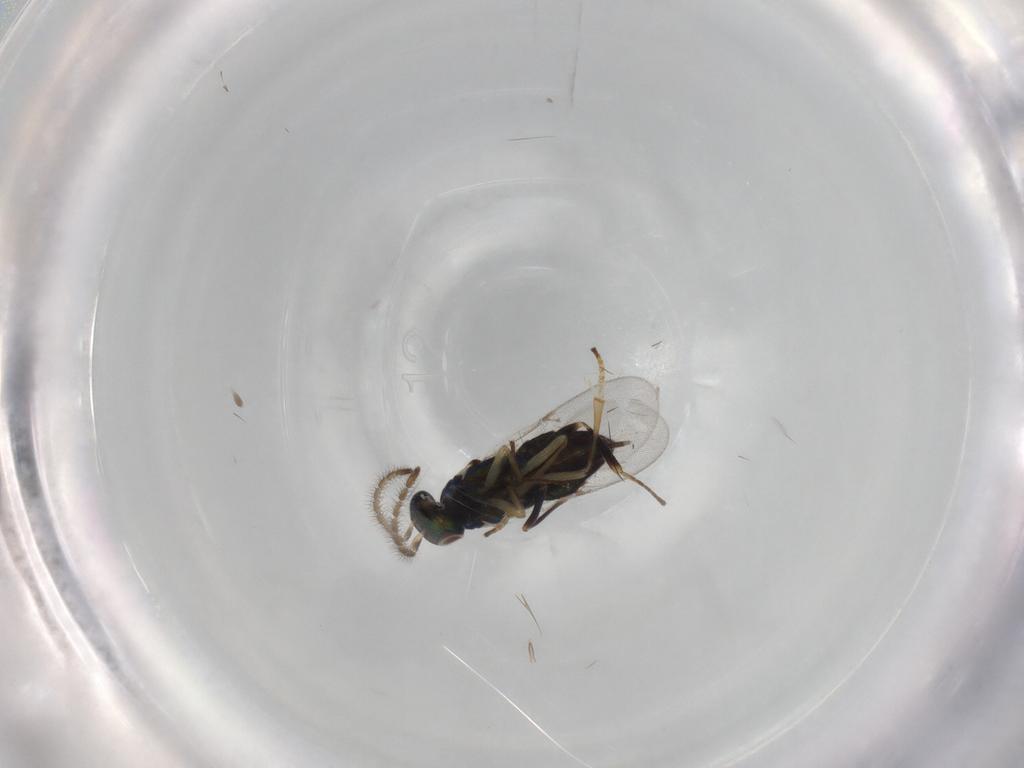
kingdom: Animalia
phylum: Arthropoda
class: Insecta
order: Hymenoptera
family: Encyrtidae
